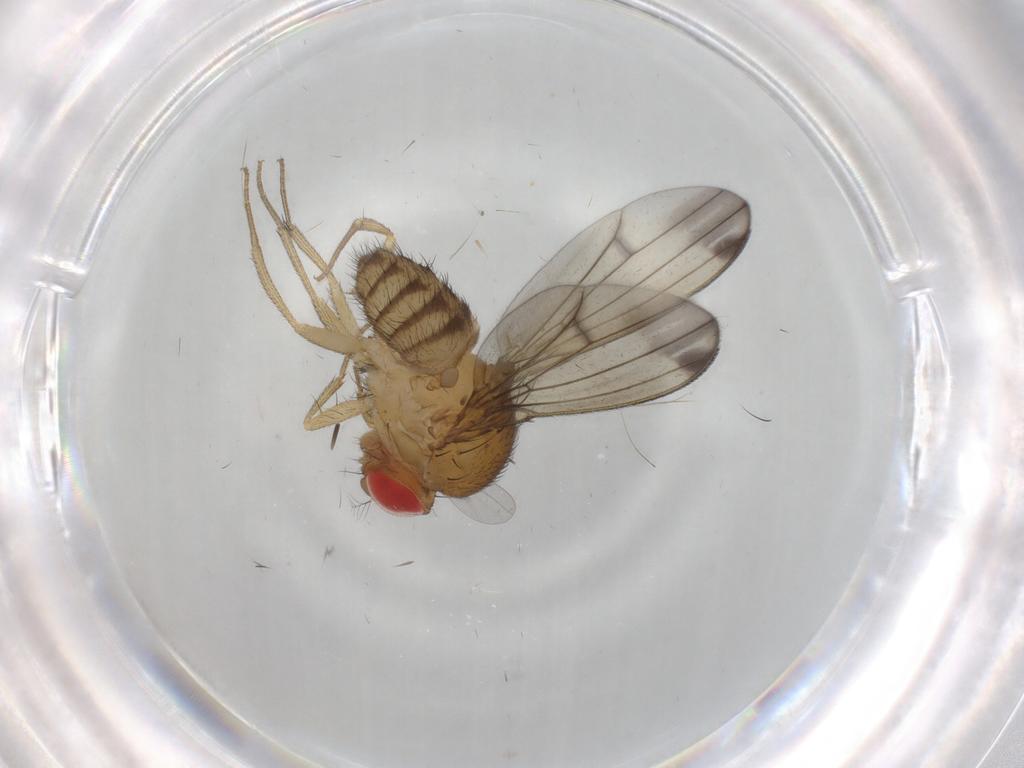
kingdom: Animalia
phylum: Arthropoda
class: Insecta
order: Diptera
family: Drosophilidae
